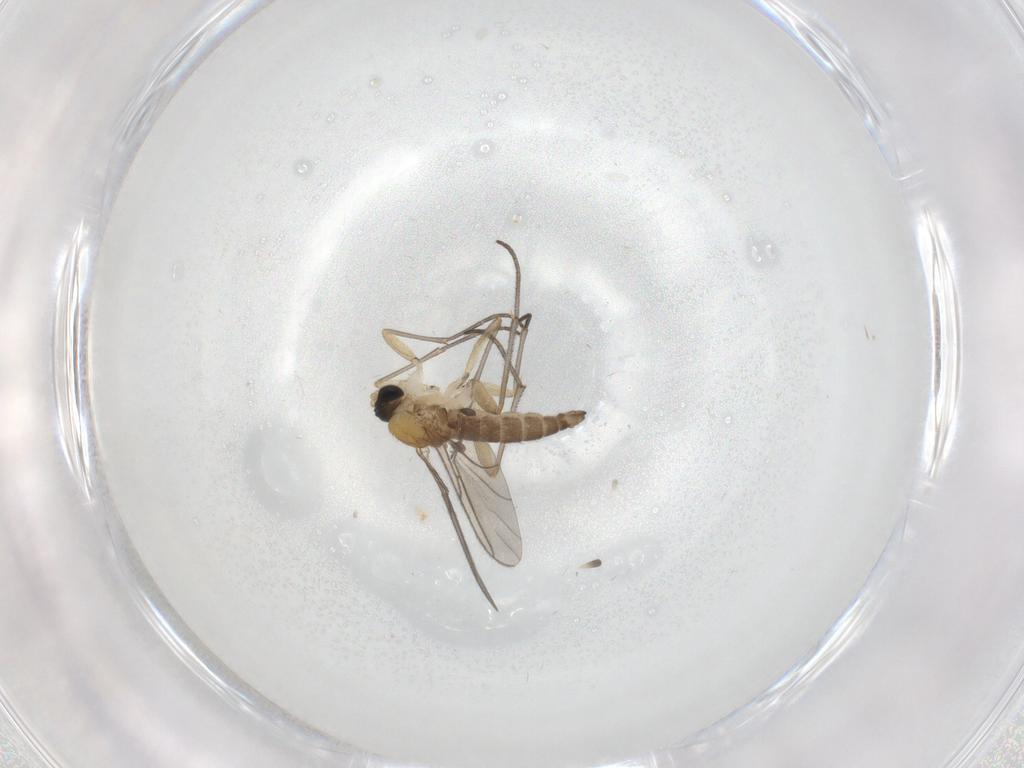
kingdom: Animalia
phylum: Arthropoda
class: Insecta
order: Diptera
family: Sciaridae
